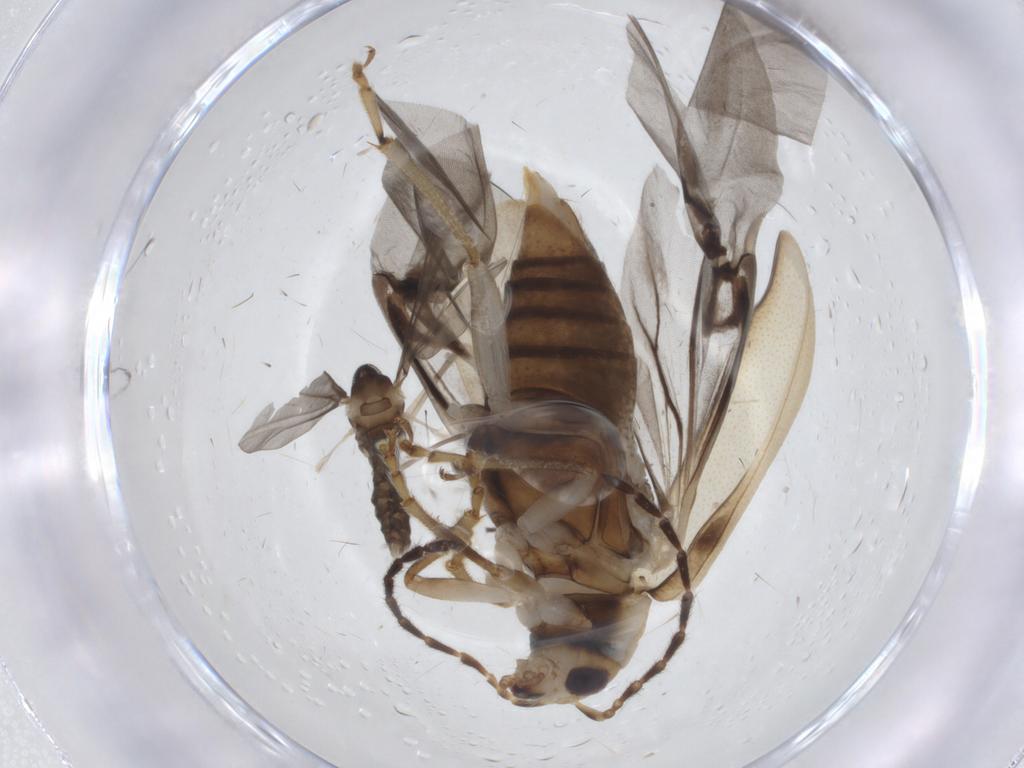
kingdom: Animalia
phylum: Arthropoda
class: Insecta
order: Diptera
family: Cecidomyiidae
